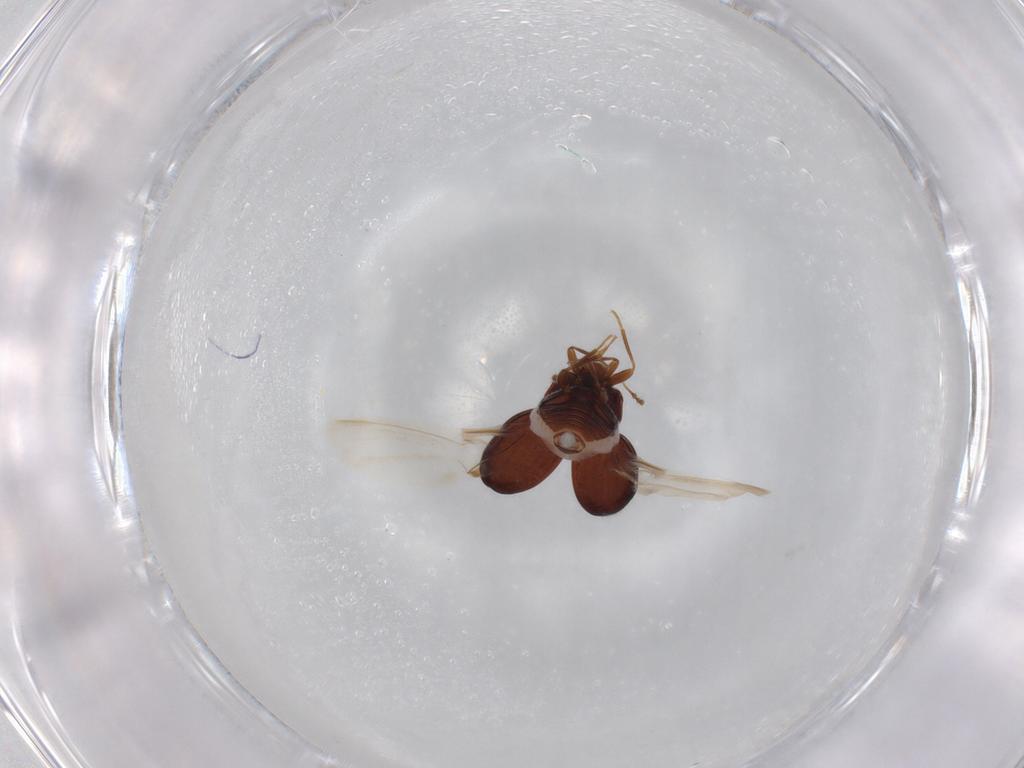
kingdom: Animalia
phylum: Arthropoda
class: Insecta
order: Coleoptera
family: Anamorphidae
